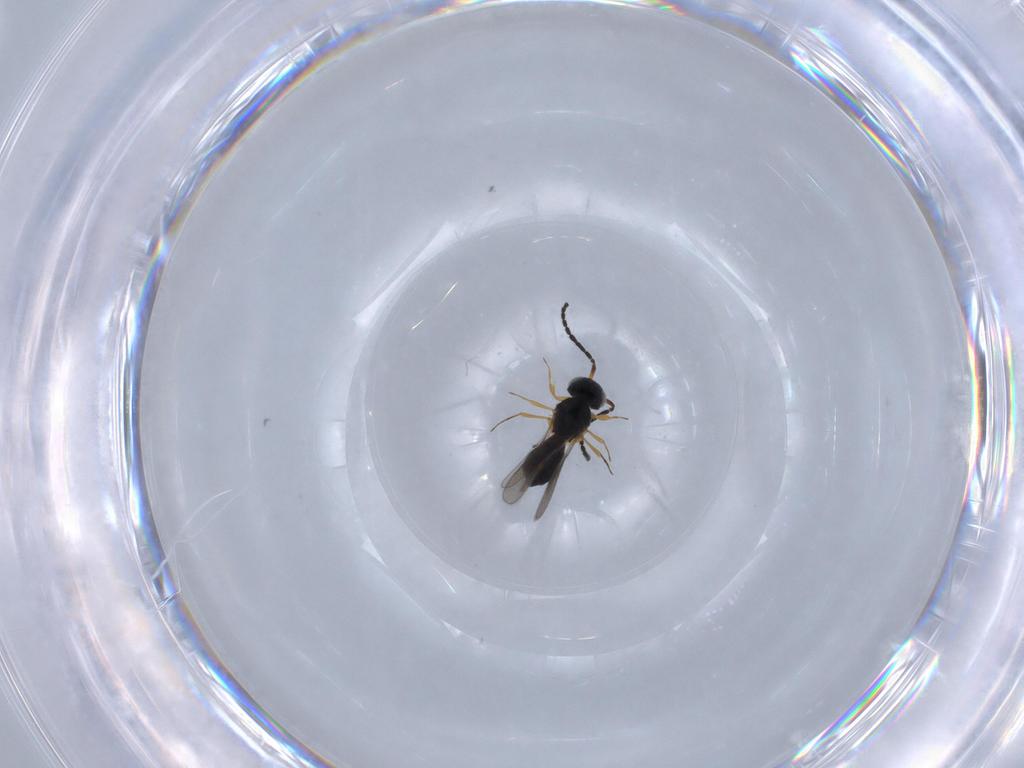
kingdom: Animalia
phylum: Arthropoda
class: Insecta
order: Hymenoptera
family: Scelionidae
